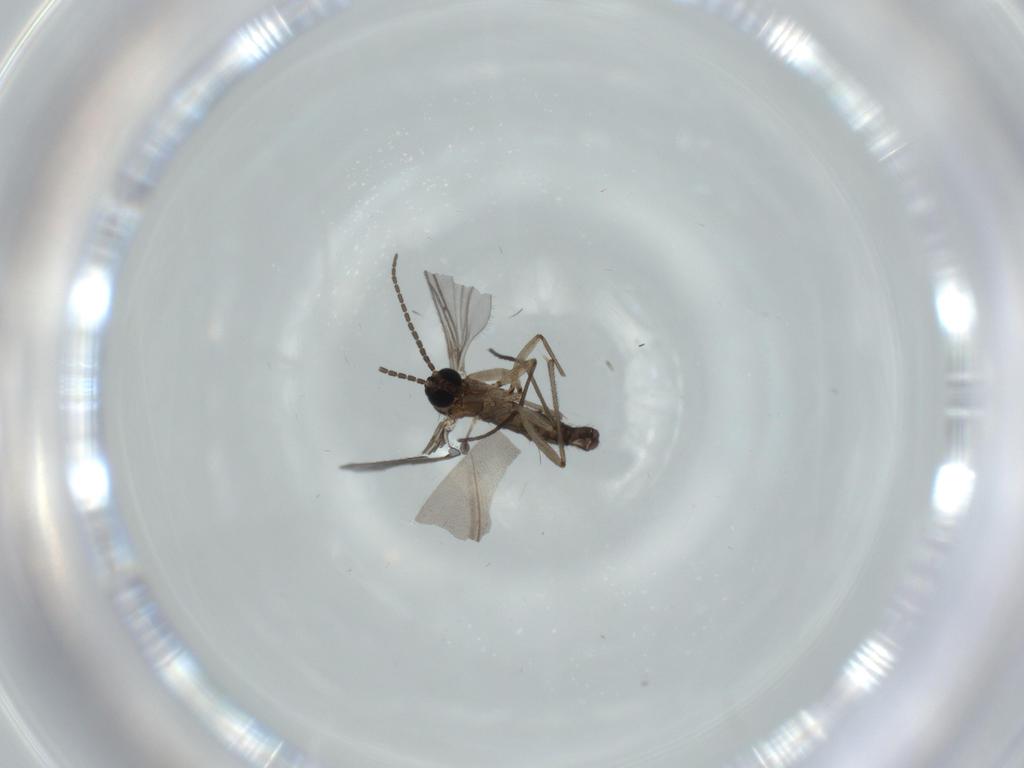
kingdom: Animalia
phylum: Arthropoda
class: Insecta
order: Diptera
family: Sciaridae
